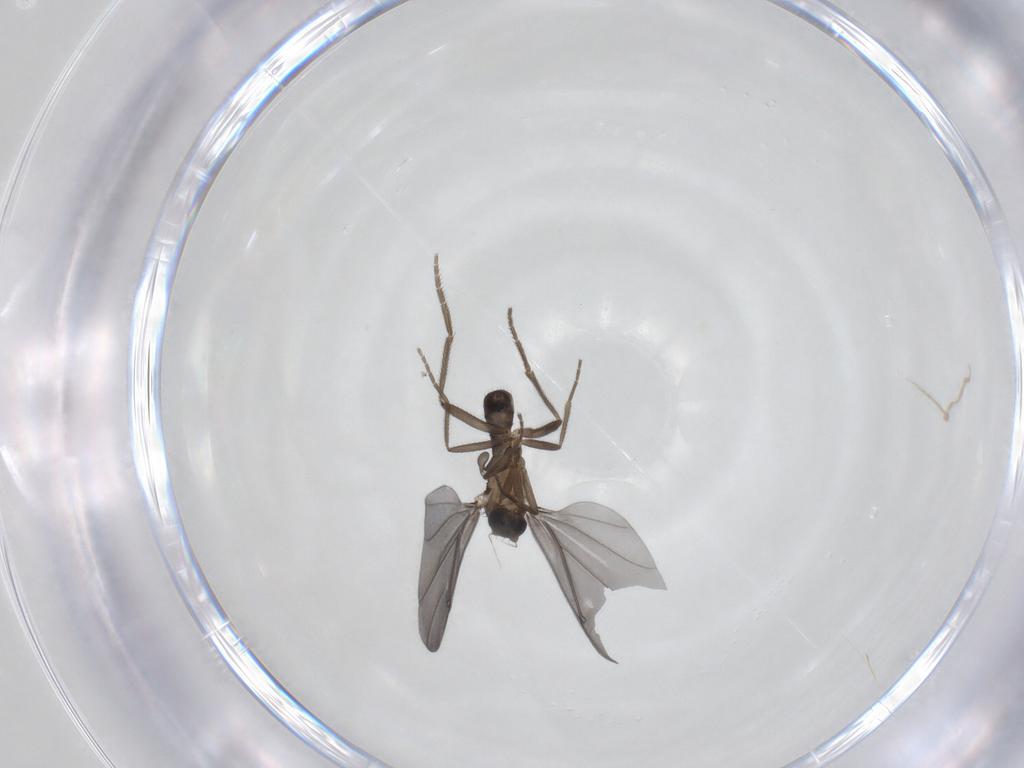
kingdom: Animalia
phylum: Arthropoda
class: Insecta
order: Diptera
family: Phoridae
